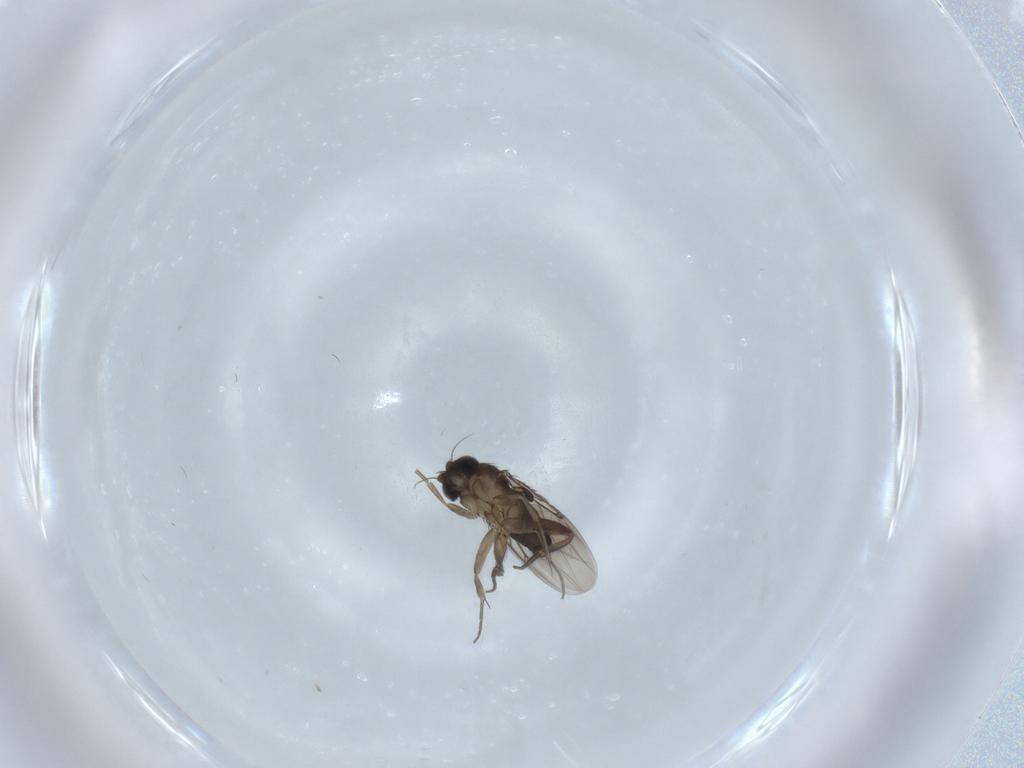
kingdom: Animalia
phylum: Arthropoda
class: Insecta
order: Diptera
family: Phoridae
